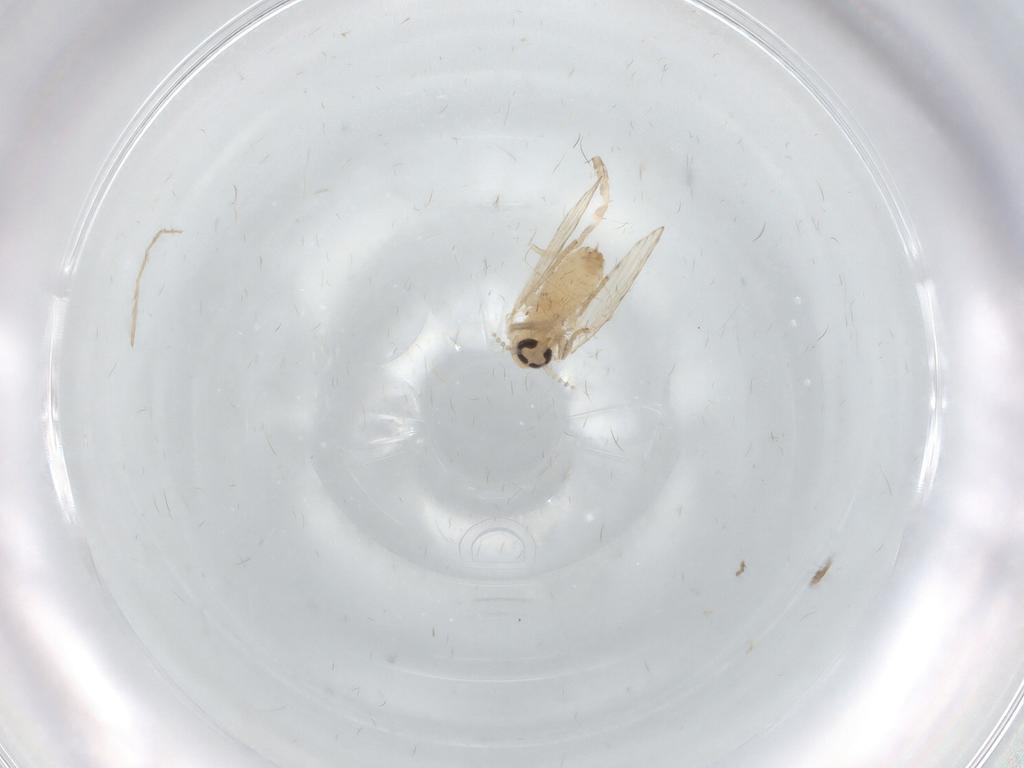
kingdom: Animalia
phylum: Arthropoda
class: Insecta
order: Diptera
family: Psychodidae
